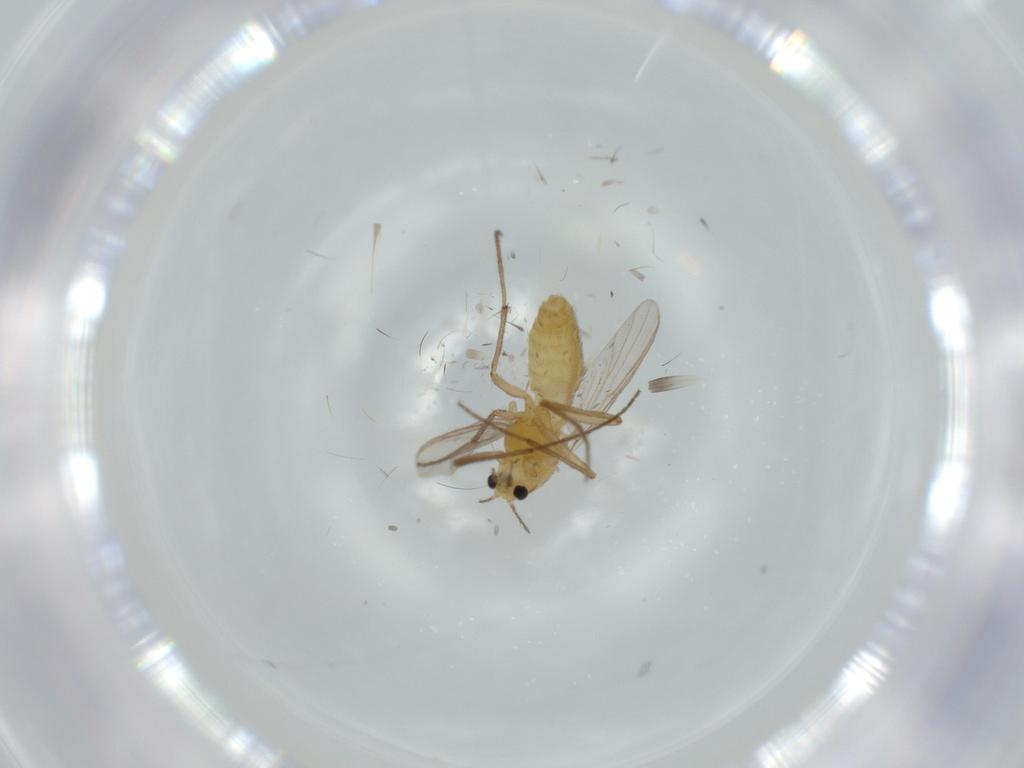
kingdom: Animalia
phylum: Arthropoda
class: Insecta
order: Diptera
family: Chironomidae
